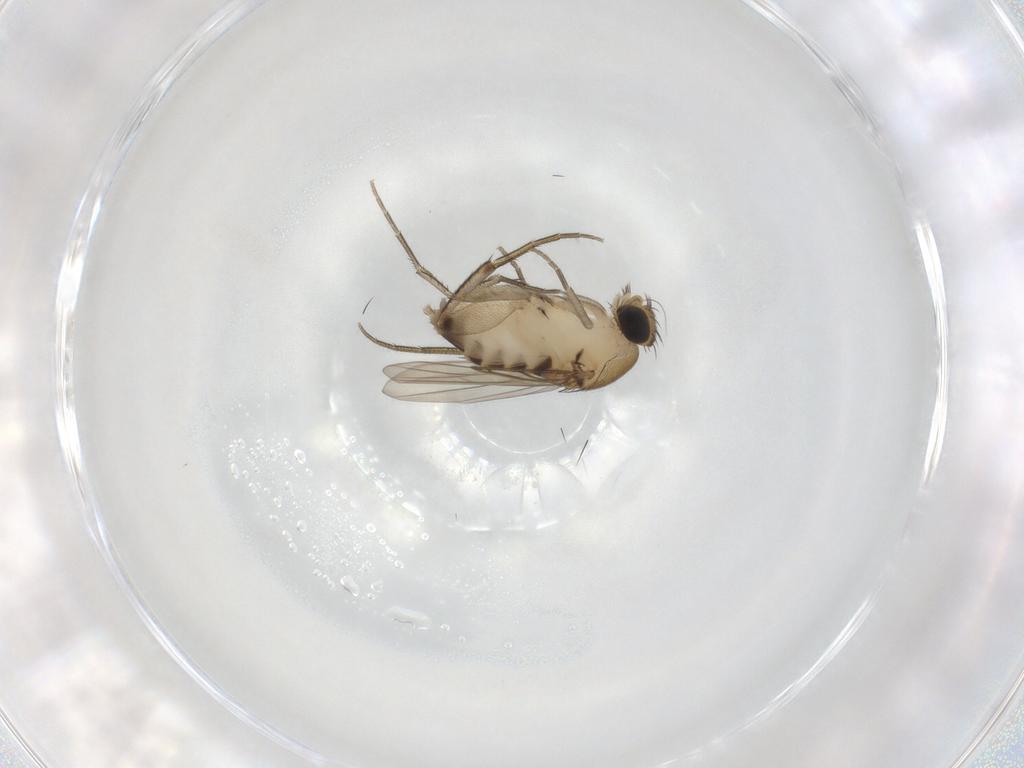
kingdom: Animalia
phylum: Arthropoda
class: Insecta
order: Diptera
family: Phoridae
